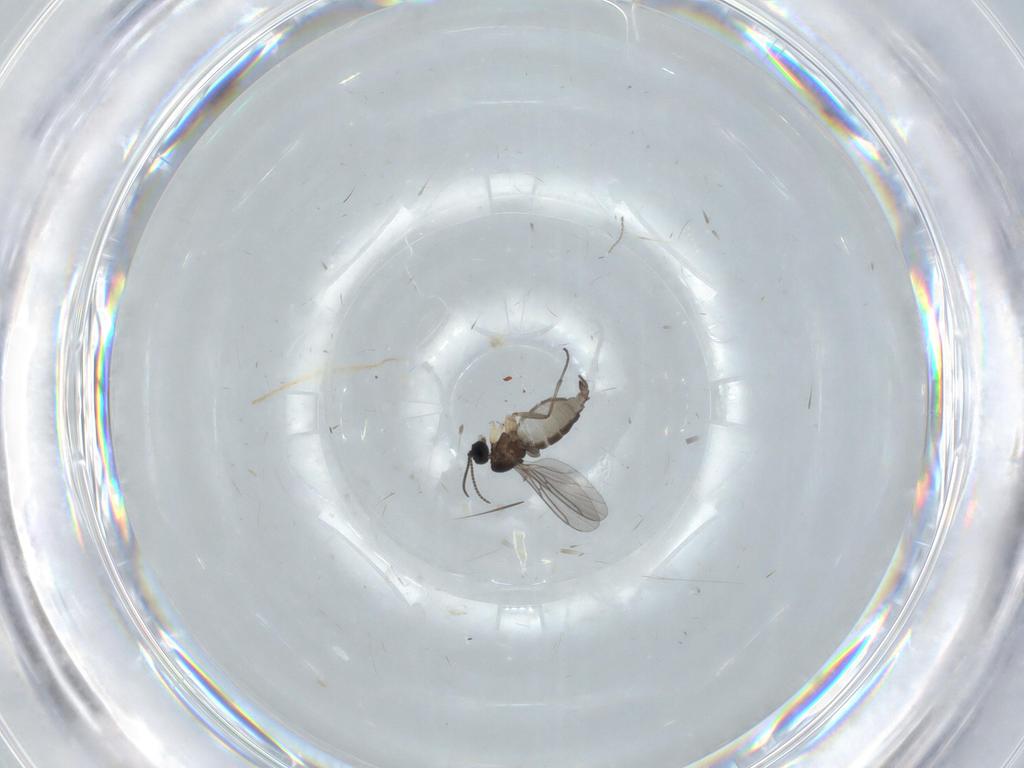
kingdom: Animalia
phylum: Arthropoda
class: Insecta
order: Diptera
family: Sciaridae
